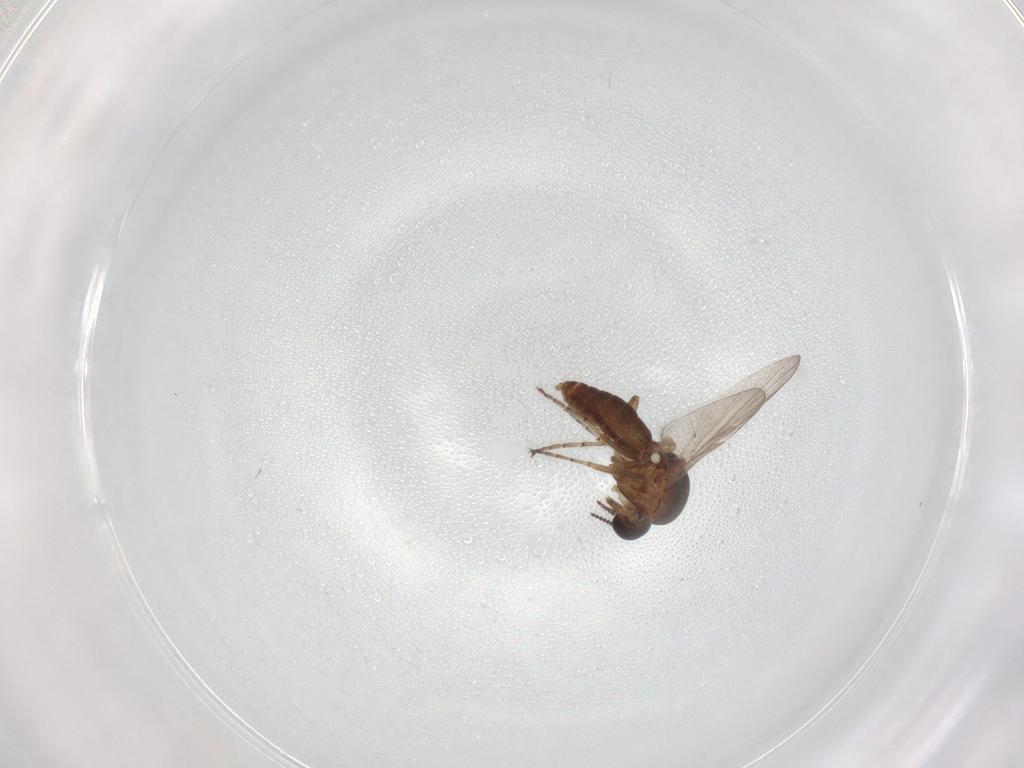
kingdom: Animalia
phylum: Arthropoda
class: Insecta
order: Diptera
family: Ceratopogonidae
